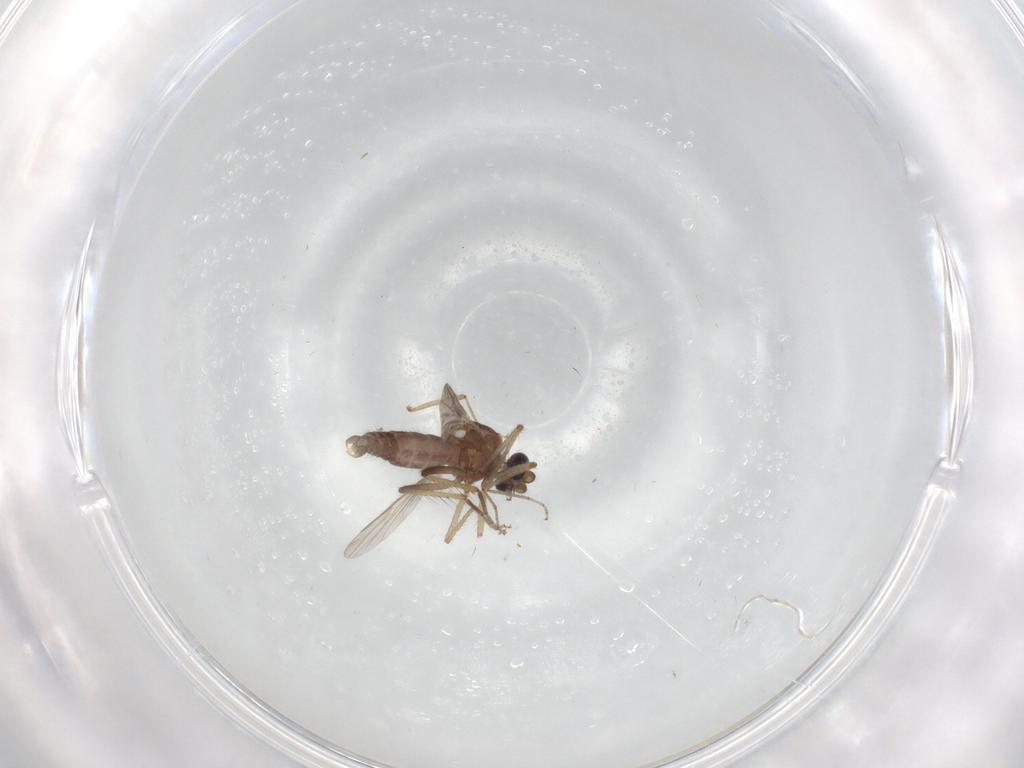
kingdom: Animalia
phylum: Arthropoda
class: Insecta
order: Diptera
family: Ceratopogonidae
